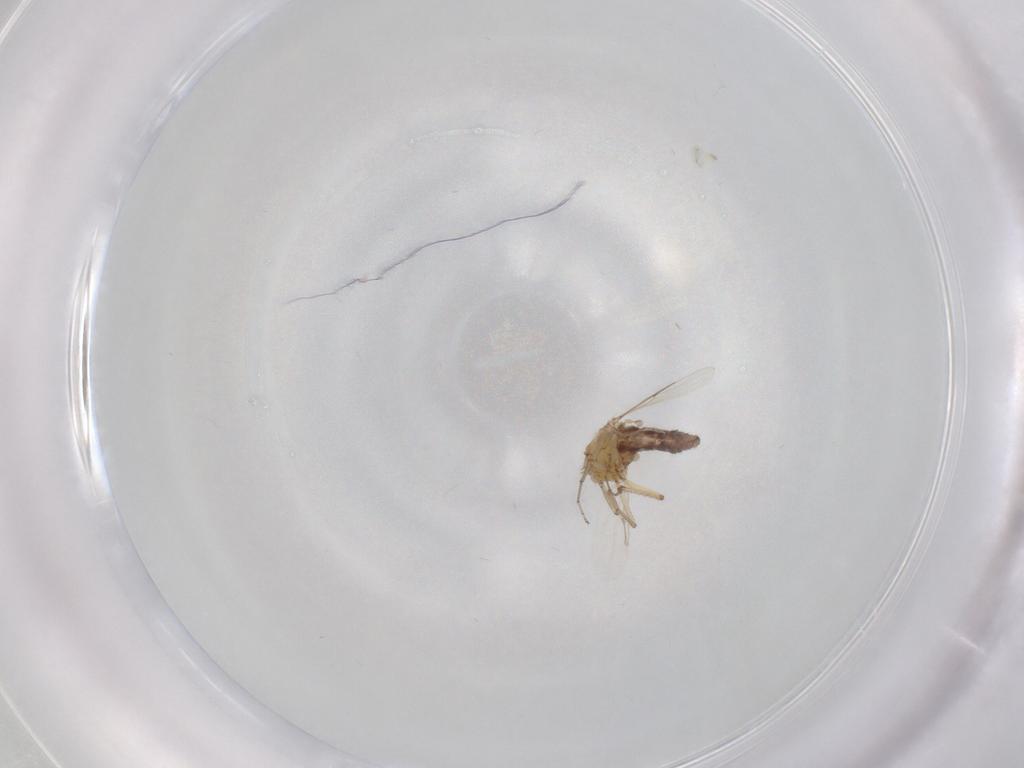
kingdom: Animalia
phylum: Arthropoda
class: Insecta
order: Diptera
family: Ceratopogonidae
